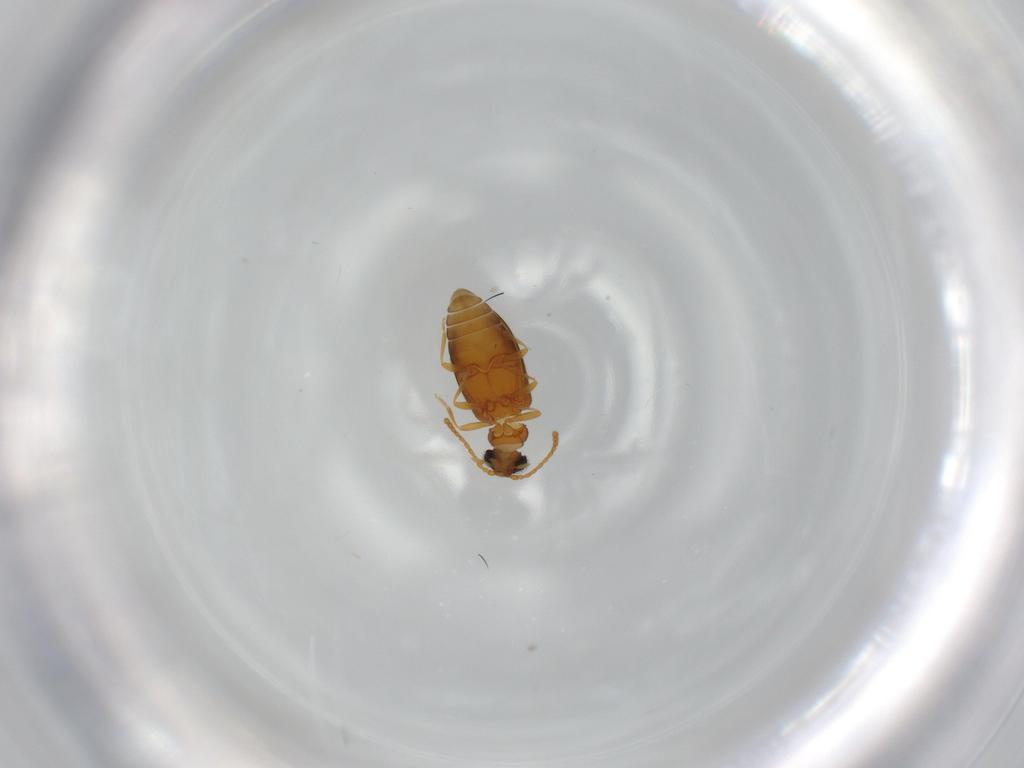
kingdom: Animalia
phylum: Arthropoda
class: Insecta
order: Coleoptera
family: Aderidae
